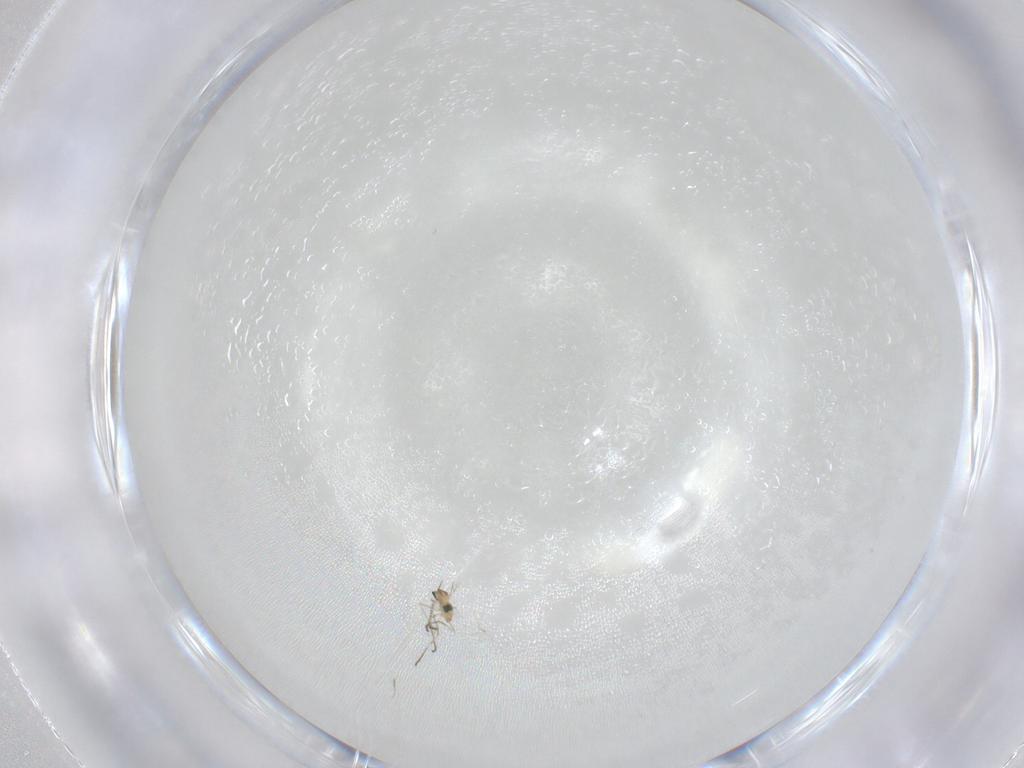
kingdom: Animalia
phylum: Arthropoda
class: Insecta
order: Diptera
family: Cecidomyiidae
